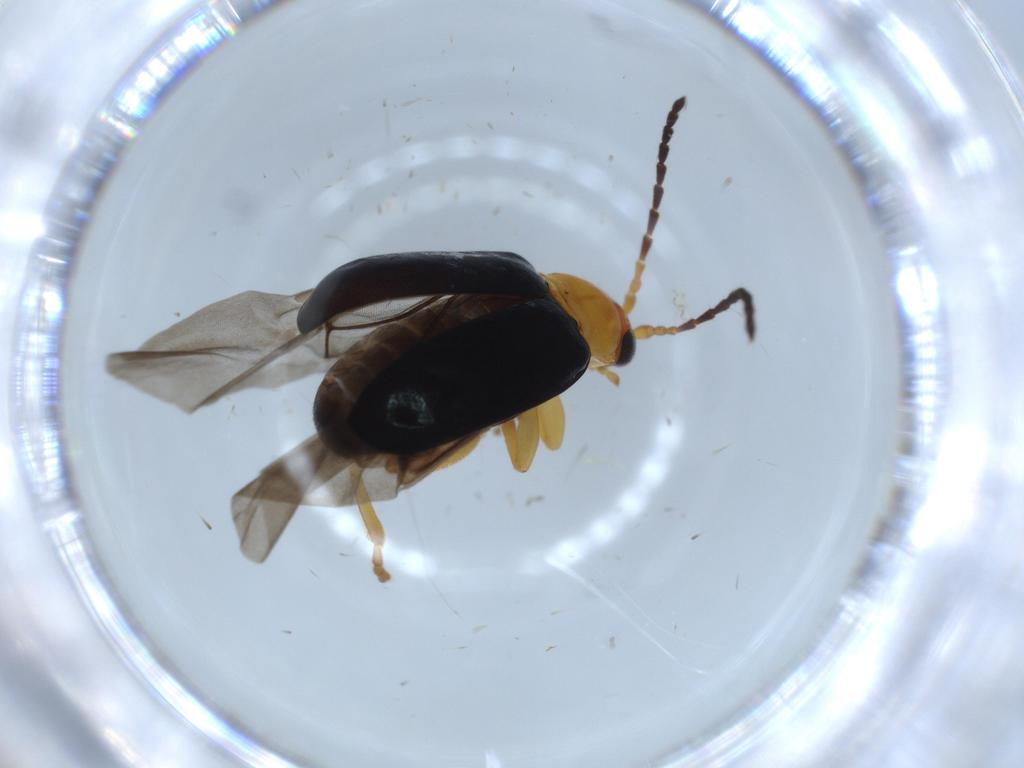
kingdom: Animalia
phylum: Arthropoda
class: Insecta
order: Coleoptera
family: Chrysomelidae
